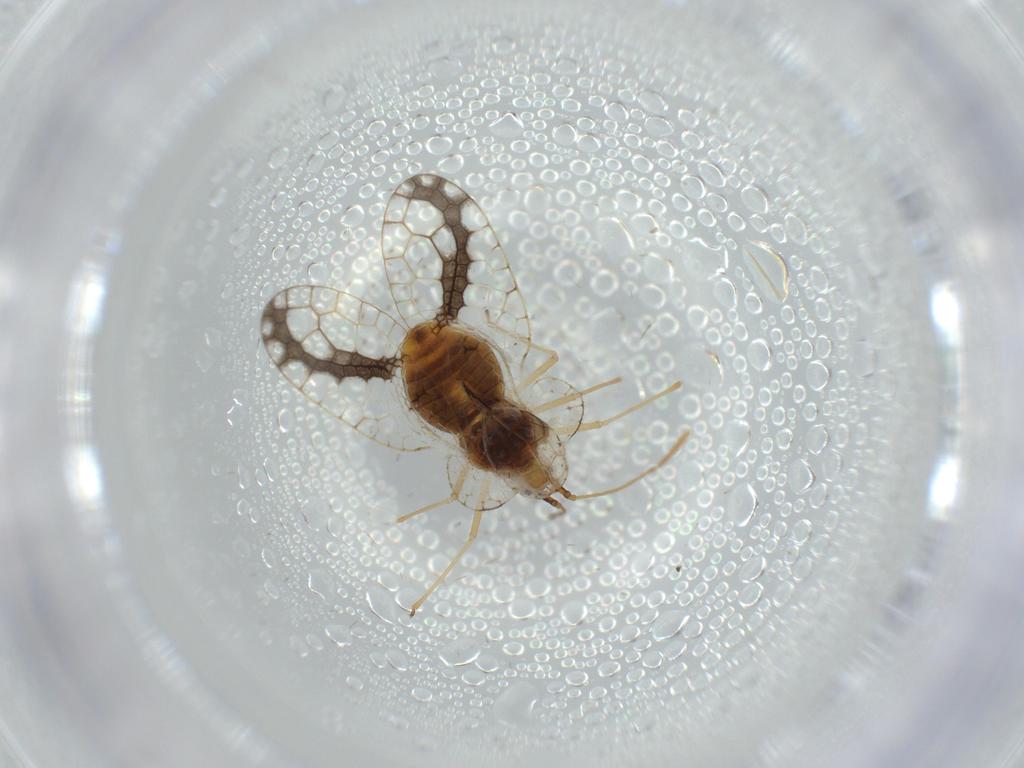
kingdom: Animalia
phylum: Arthropoda
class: Insecta
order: Hemiptera
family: Tingidae
